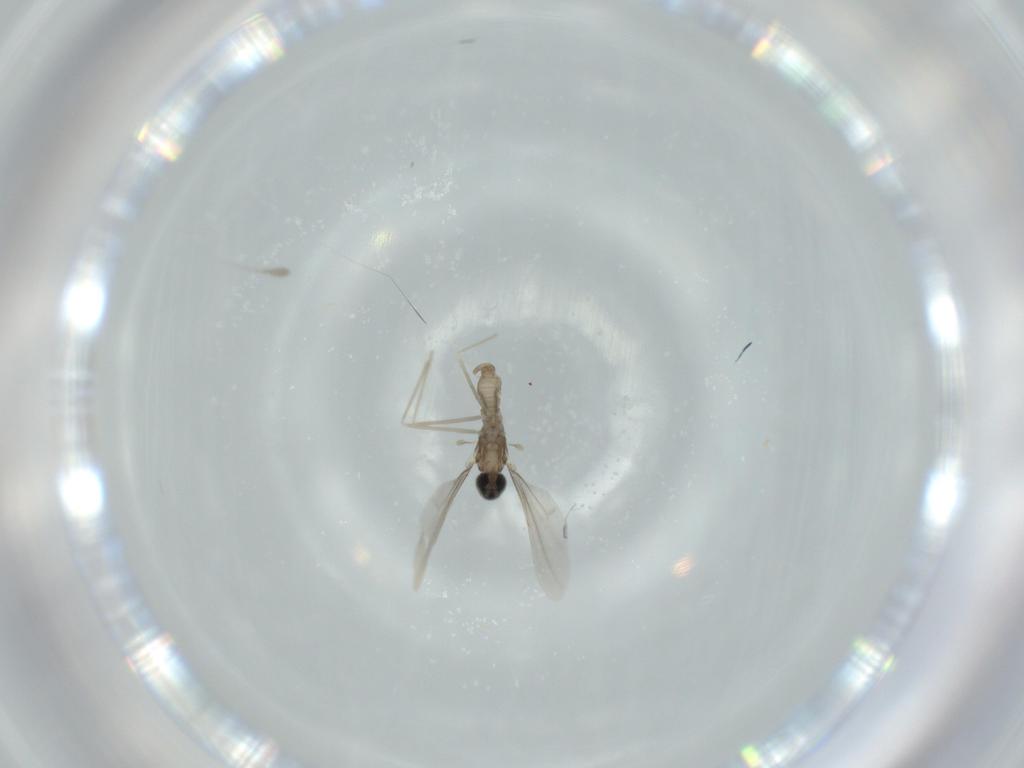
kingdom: Animalia
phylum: Arthropoda
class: Insecta
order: Diptera
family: Cecidomyiidae
